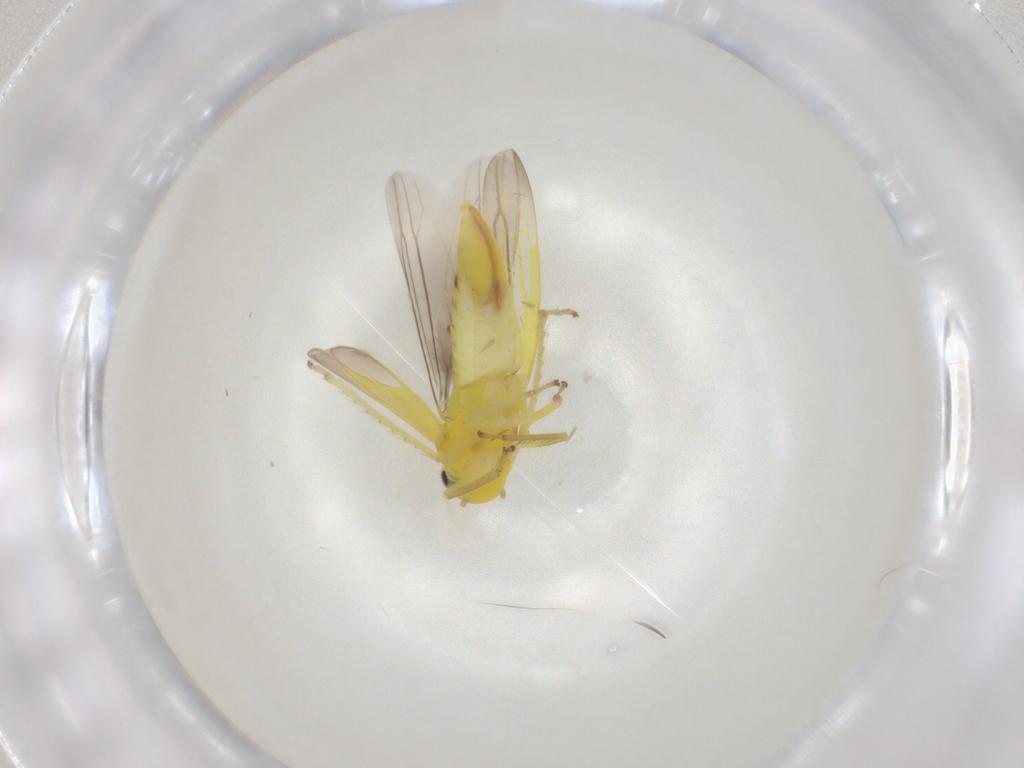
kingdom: Animalia
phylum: Arthropoda
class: Insecta
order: Hemiptera
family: Cicadellidae
